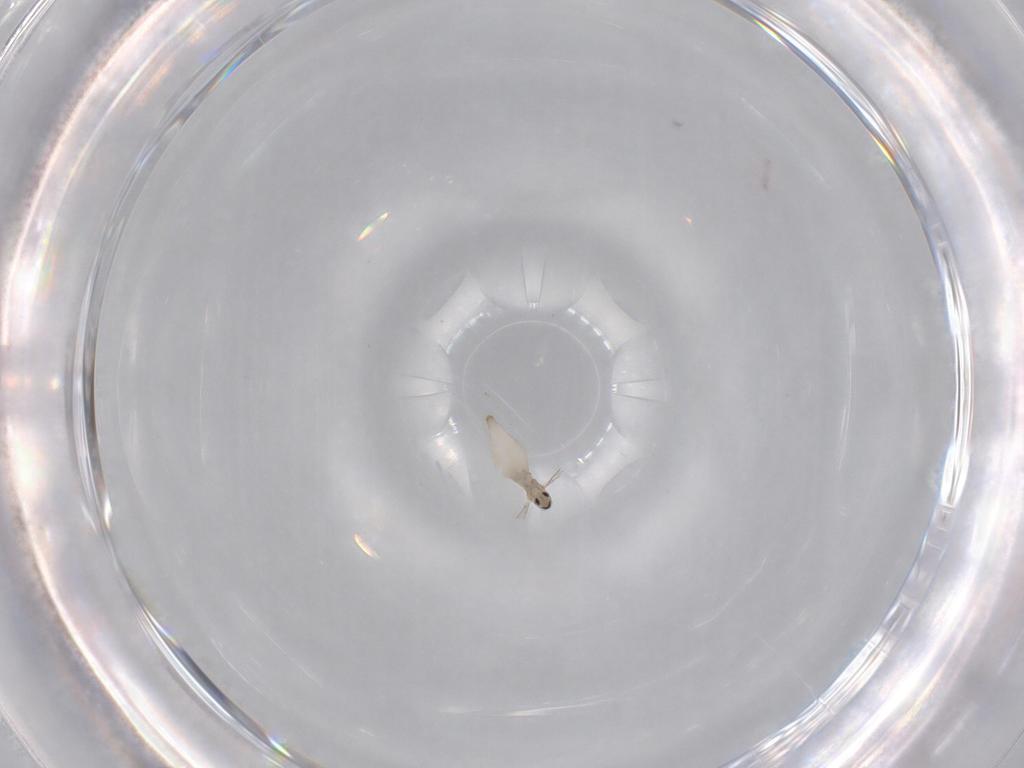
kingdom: Animalia
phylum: Arthropoda
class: Insecta
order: Diptera
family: Cecidomyiidae
